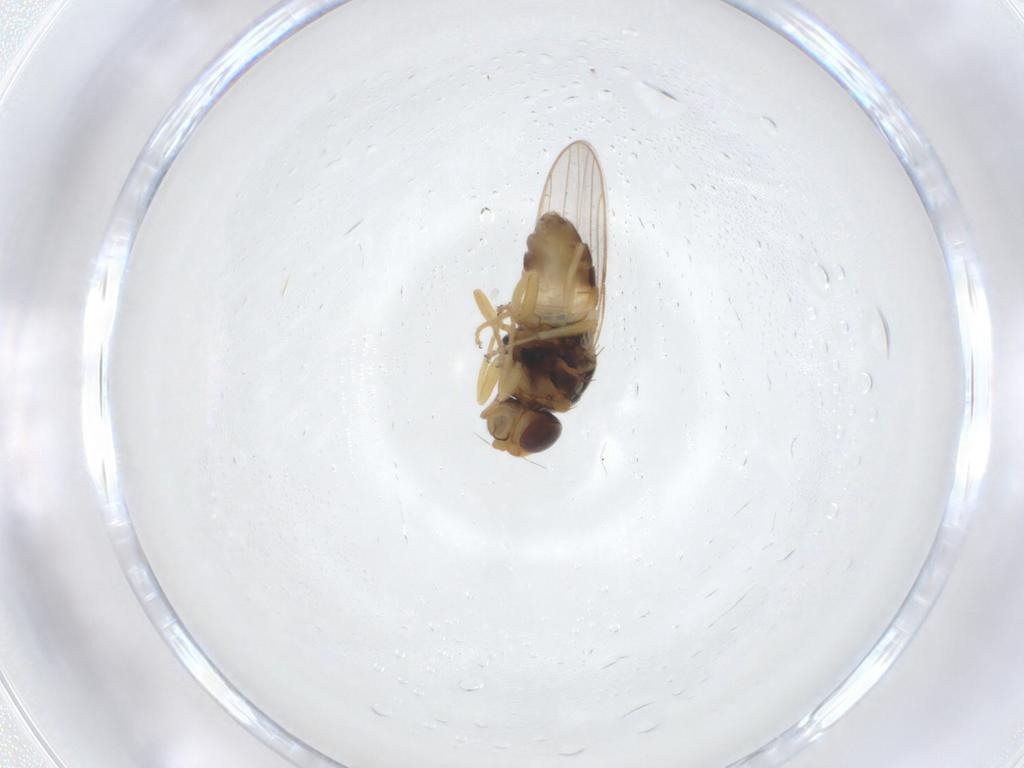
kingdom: Animalia
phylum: Arthropoda
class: Insecta
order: Diptera
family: Chloropidae
